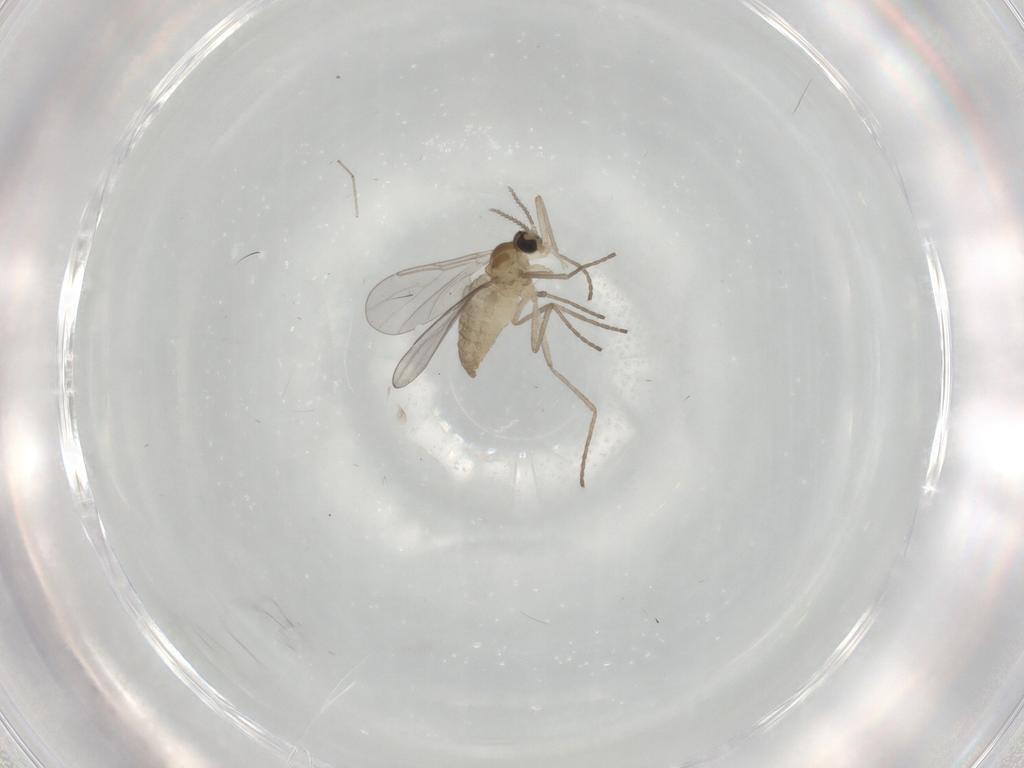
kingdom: Animalia
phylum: Arthropoda
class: Insecta
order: Diptera
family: Cecidomyiidae
